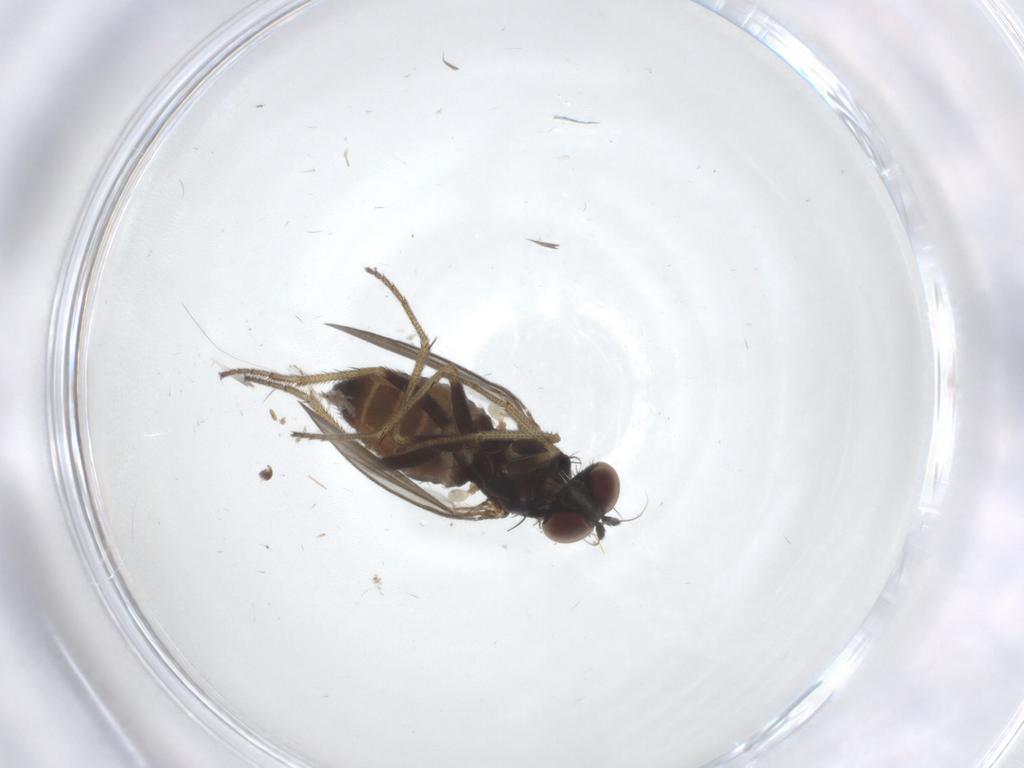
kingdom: Animalia
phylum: Arthropoda
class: Insecta
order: Diptera
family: Dolichopodidae
